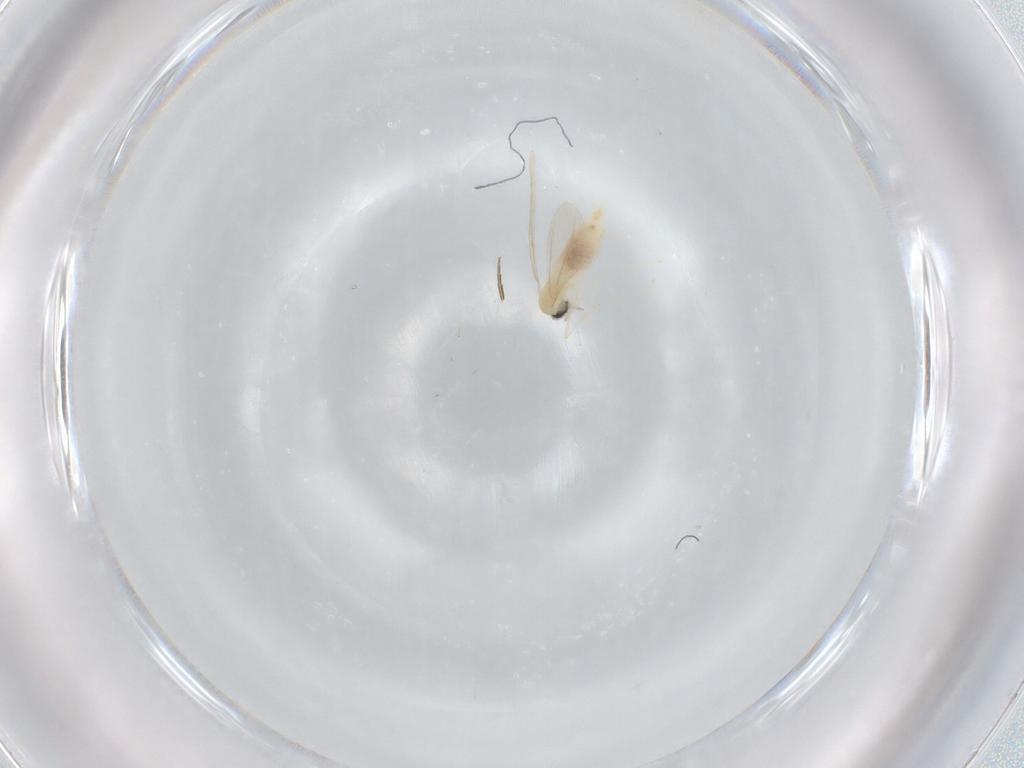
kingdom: Animalia
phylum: Arthropoda
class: Insecta
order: Diptera
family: Cecidomyiidae
